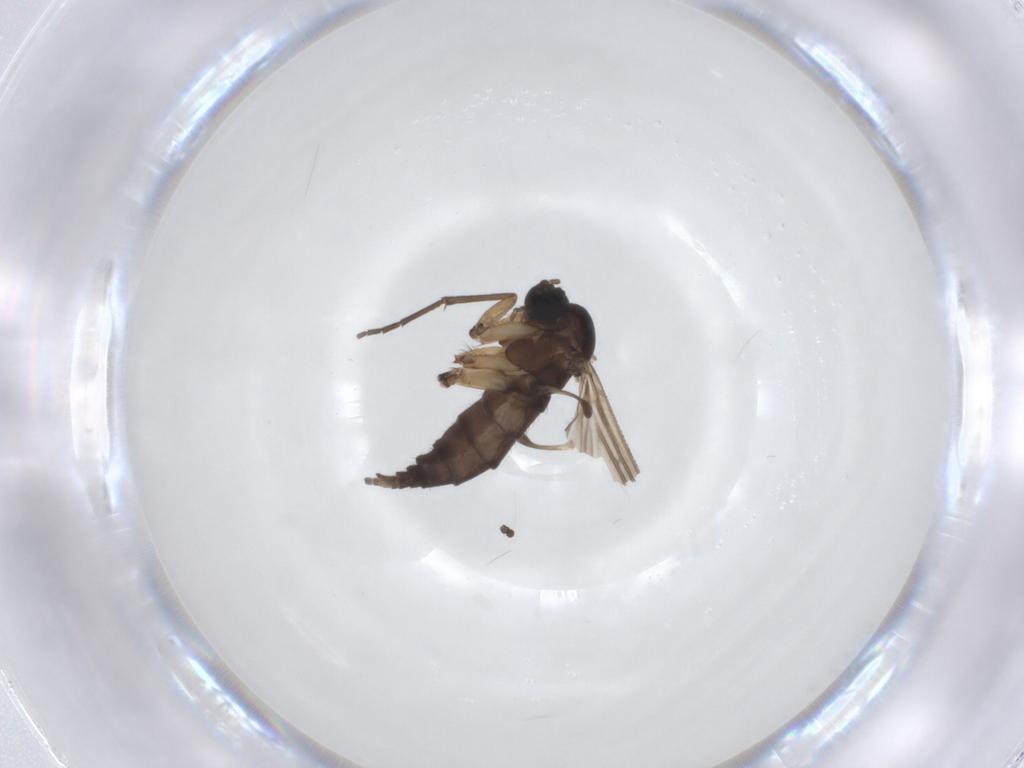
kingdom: Animalia
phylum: Arthropoda
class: Insecta
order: Diptera
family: Sciaridae
